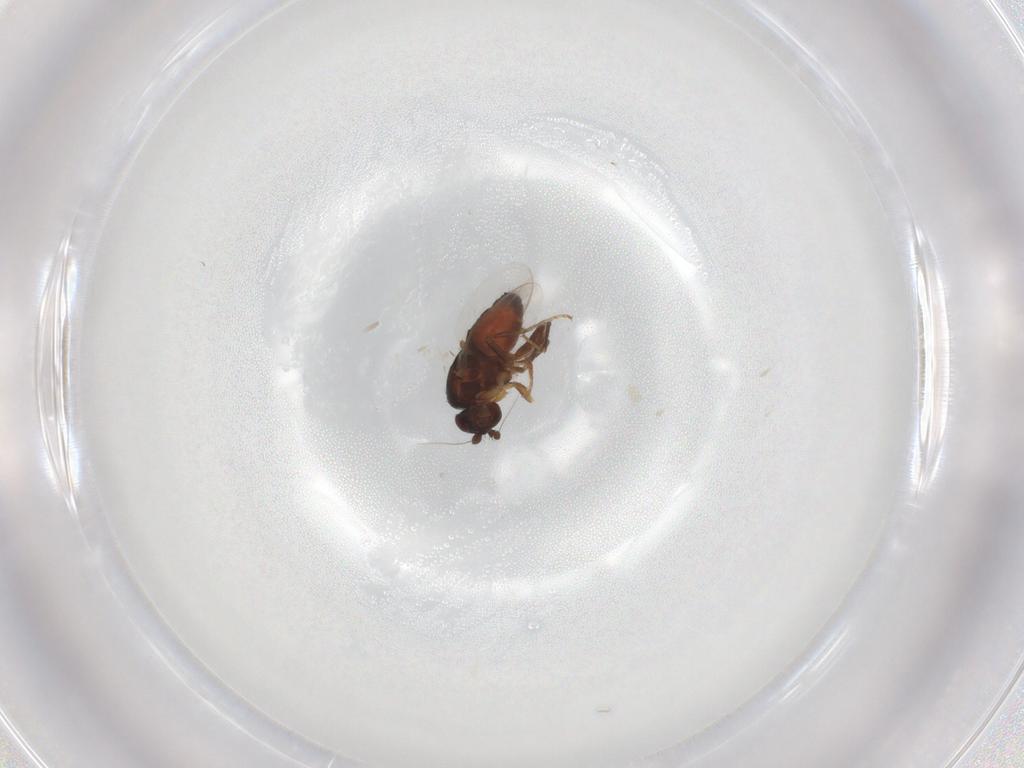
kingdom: Animalia
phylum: Arthropoda
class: Insecta
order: Diptera
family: Sphaeroceridae
